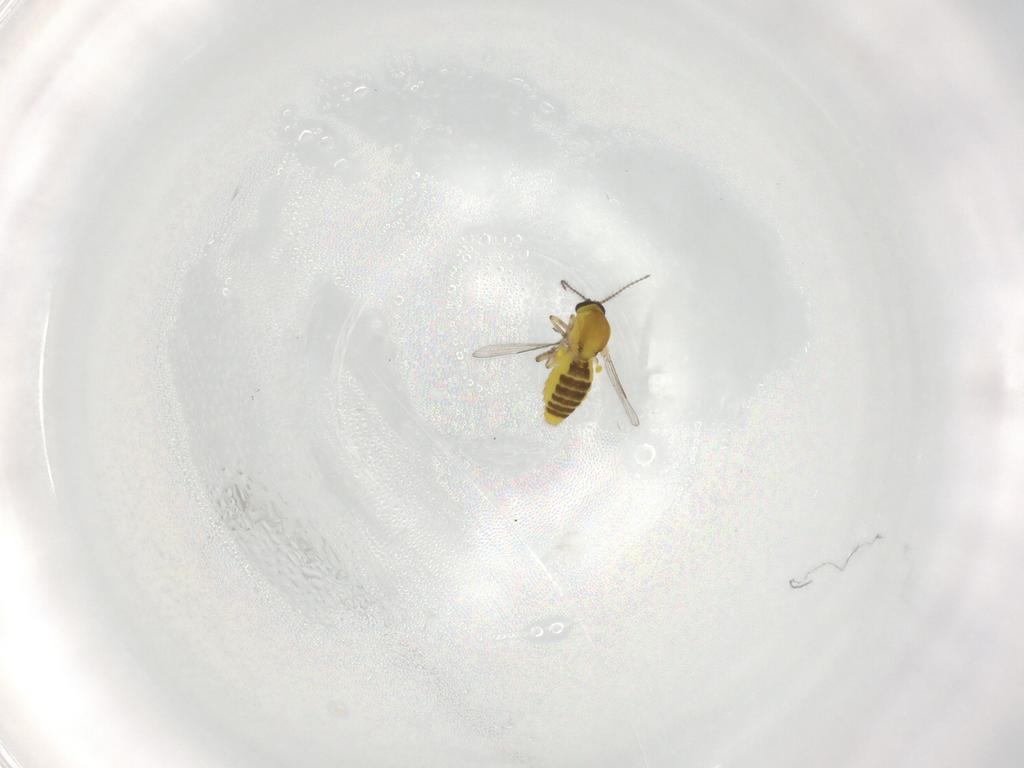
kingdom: Animalia
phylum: Arthropoda
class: Insecta
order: Diptera
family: Ceratopogonidae
